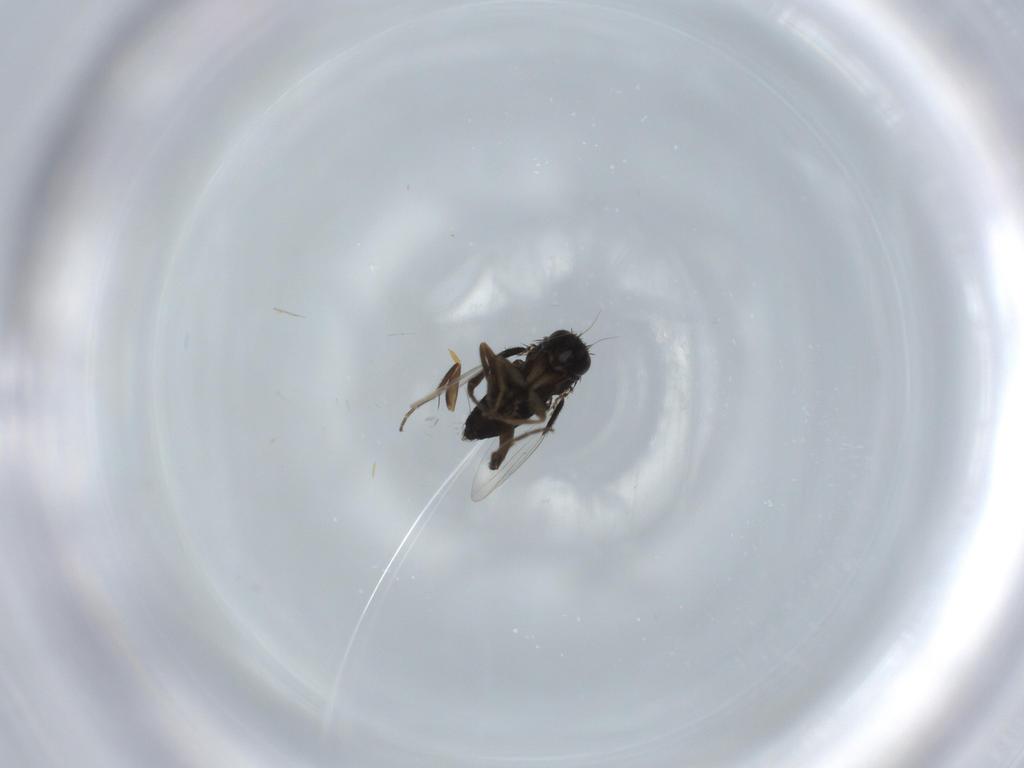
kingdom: Animalia
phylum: Arthropoda
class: Insecta
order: Diptera
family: Phoridae
